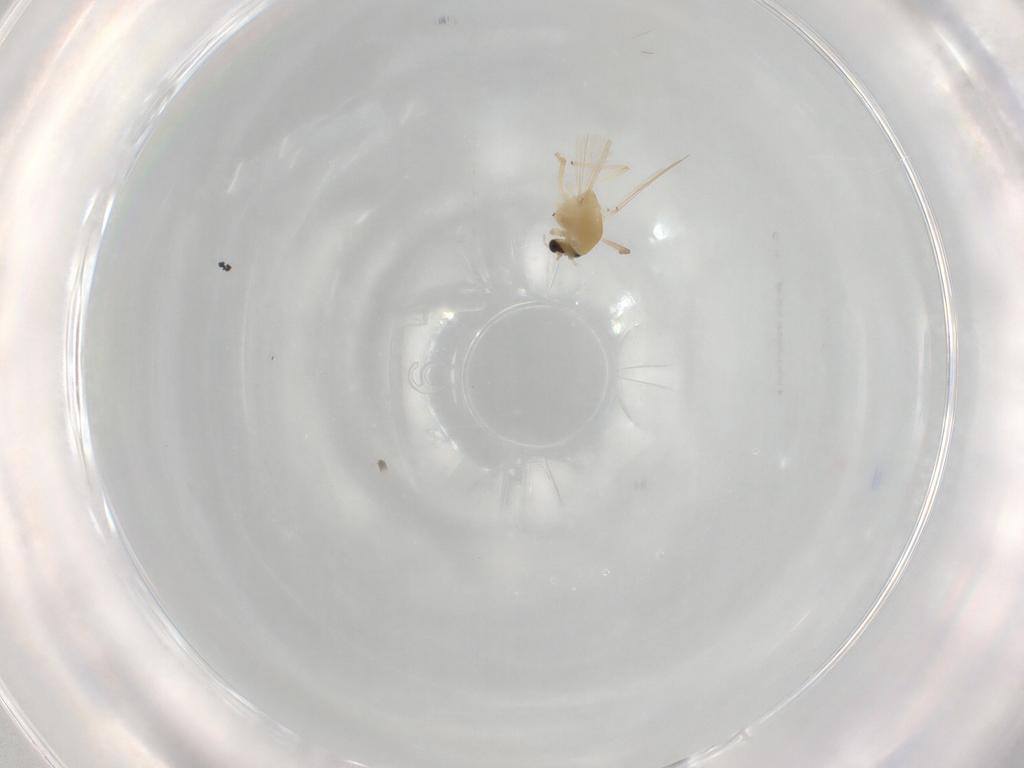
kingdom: Animalia
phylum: Arthropoda
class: Insecta
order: Diptera
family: Chironomidae
